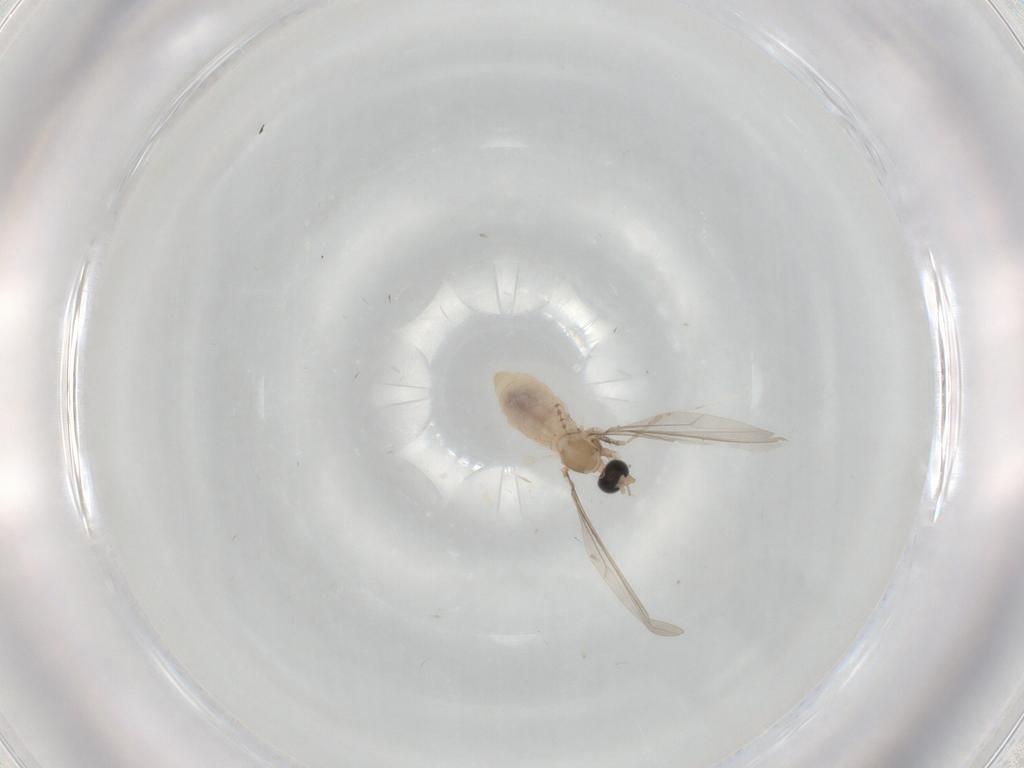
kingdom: Animalia
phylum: Arthropoda
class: Insecta
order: Diptera
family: Cecidomyiidae
